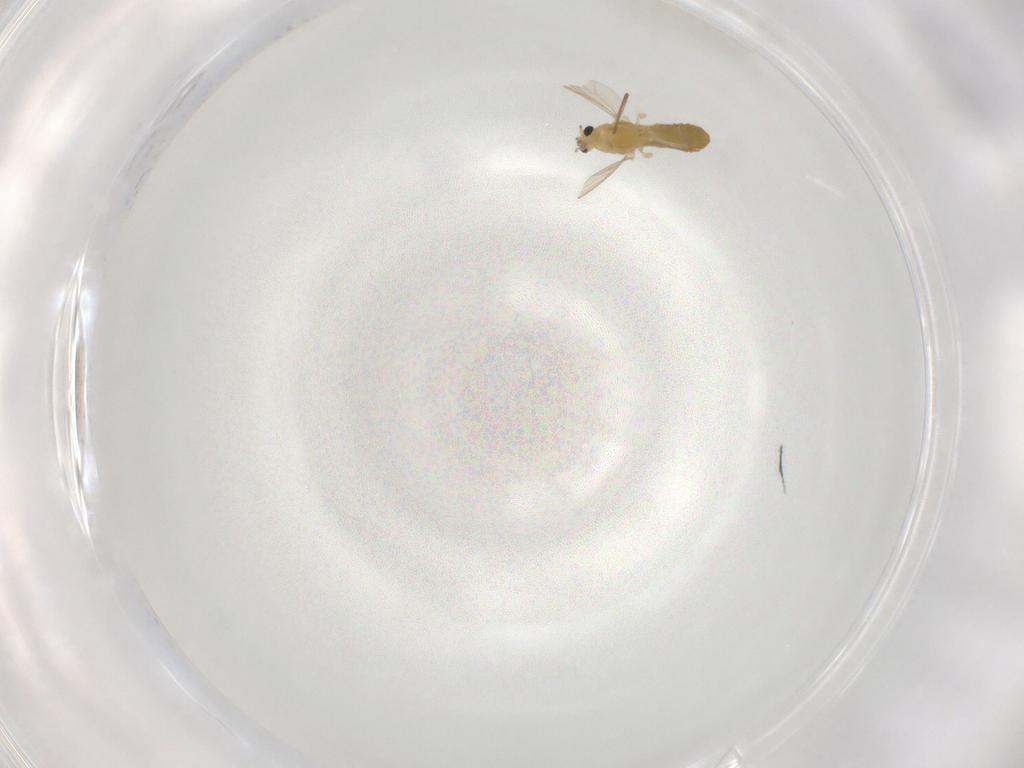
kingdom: Animalia
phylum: Arthropoda
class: Insecta
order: Diptera
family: Chironomidae
